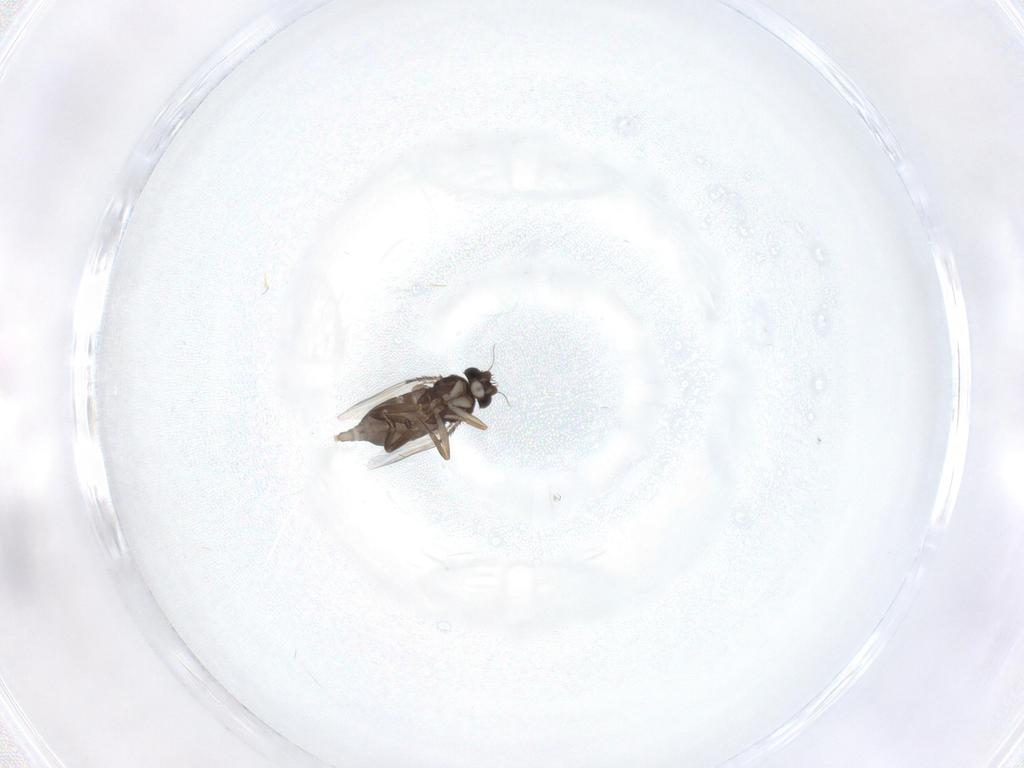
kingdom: Animalia
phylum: Arthropoda
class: Insecta
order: Diptera
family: Phoridae
